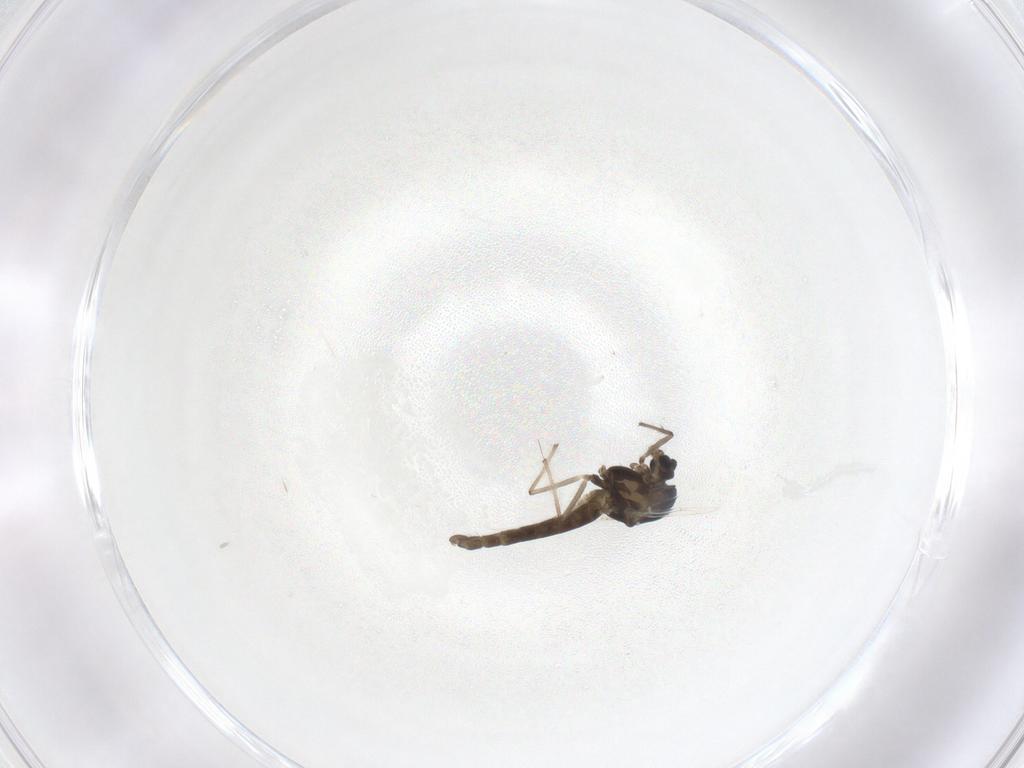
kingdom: Animalia
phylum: Arthropoda
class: Insecta
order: Diptera
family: Culicidae
